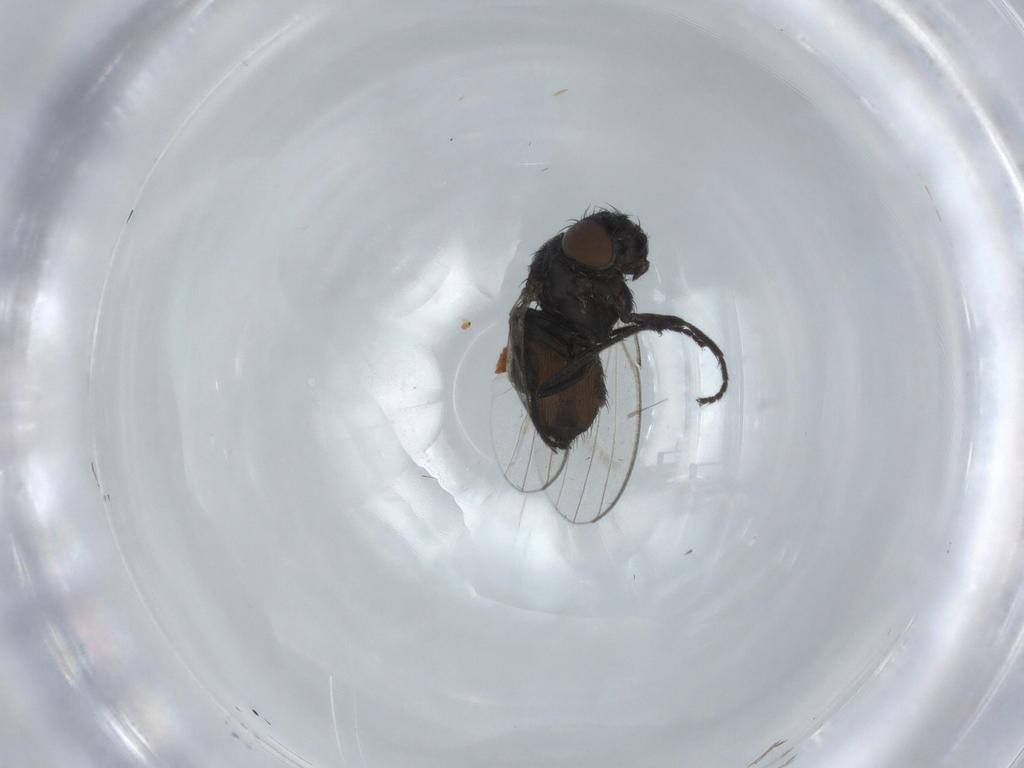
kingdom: Animalia
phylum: Arthropoda
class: Insecta
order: Diptera
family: Milichiidae
